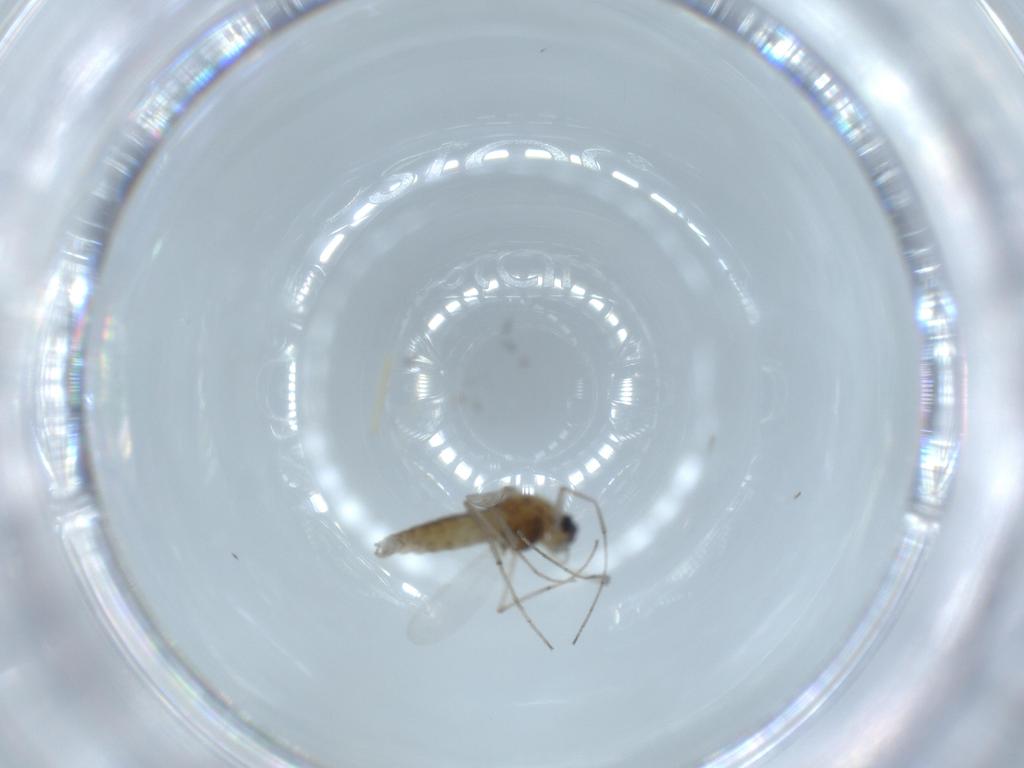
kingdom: Animalia
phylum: Arthropoda
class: Insecta
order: Diptera
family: Chironomidae
